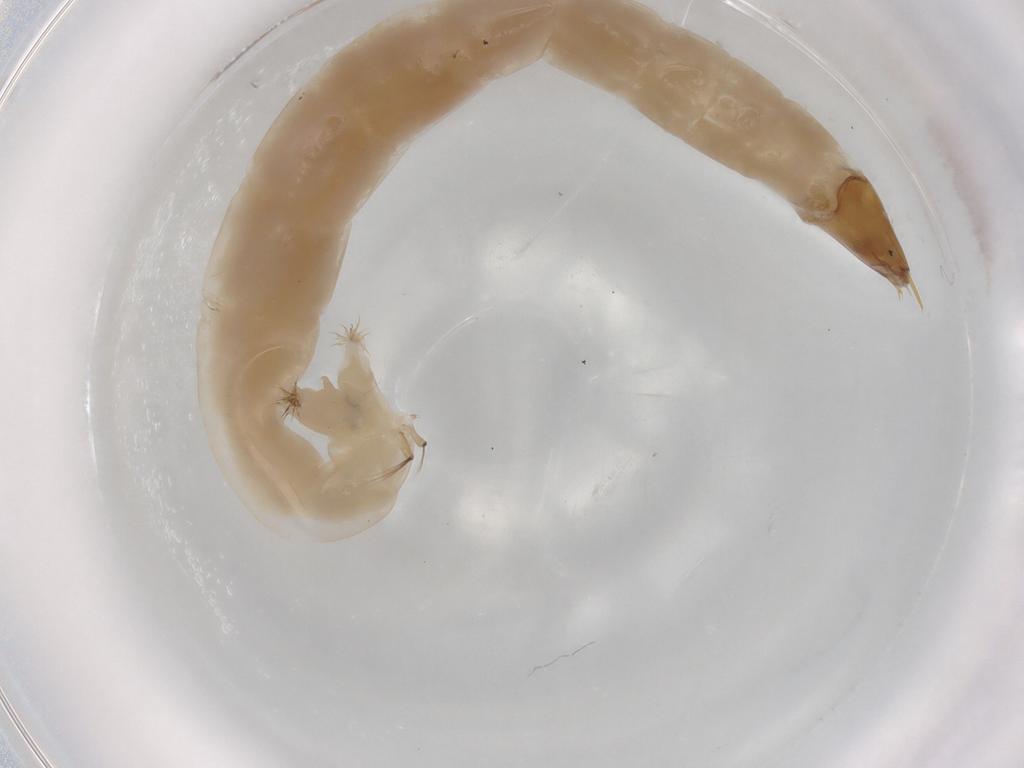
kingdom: Animalia
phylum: Arthropoda
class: Insecta
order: Diptera
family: Chironomidae
